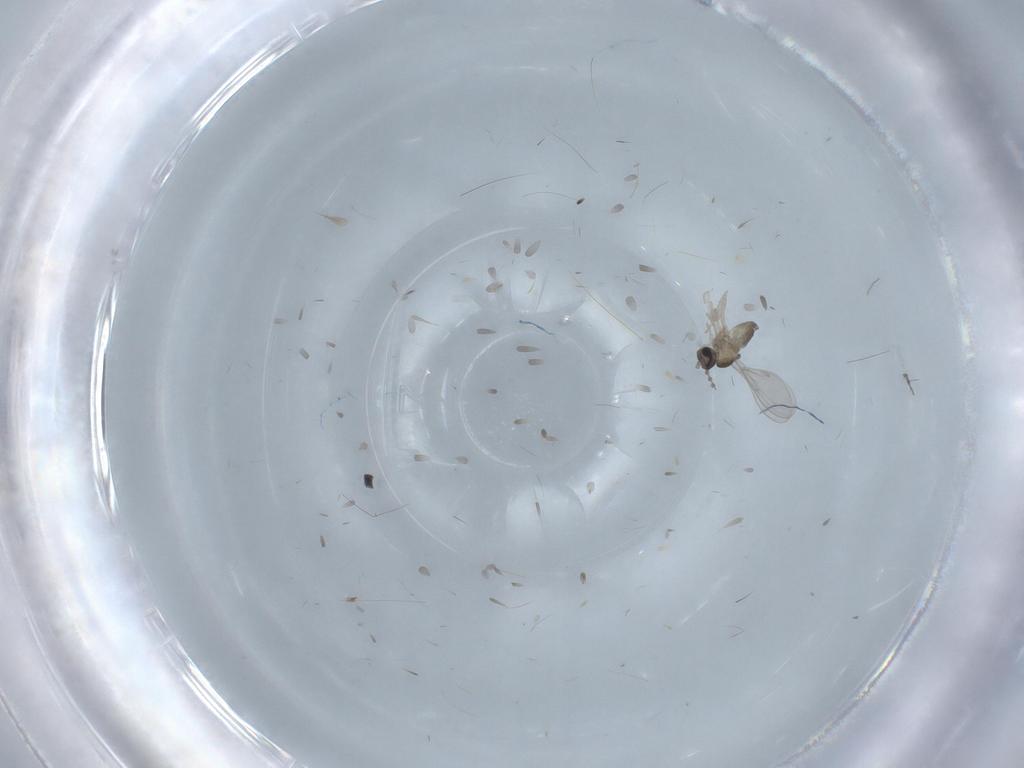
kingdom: Animalia
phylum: Arthropoda
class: Insecta
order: Diptera
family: Cecidomyiidae
